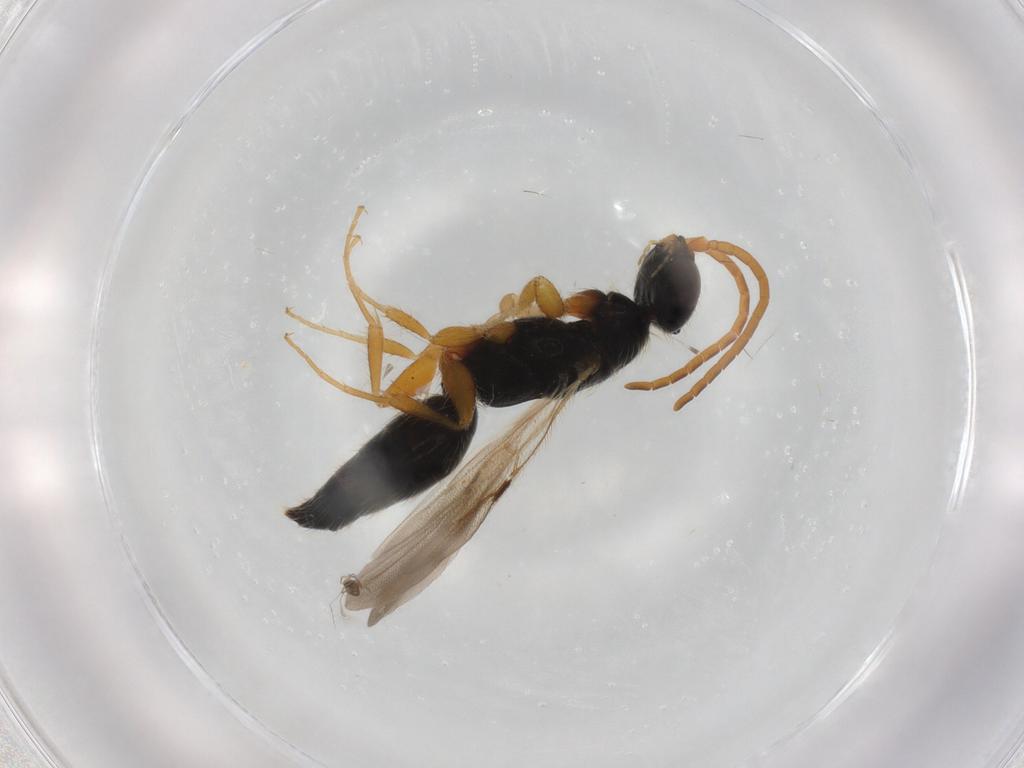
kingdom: Animalia
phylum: Arthropoda
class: Insecta
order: Hymenoptera
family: Bethylidae
